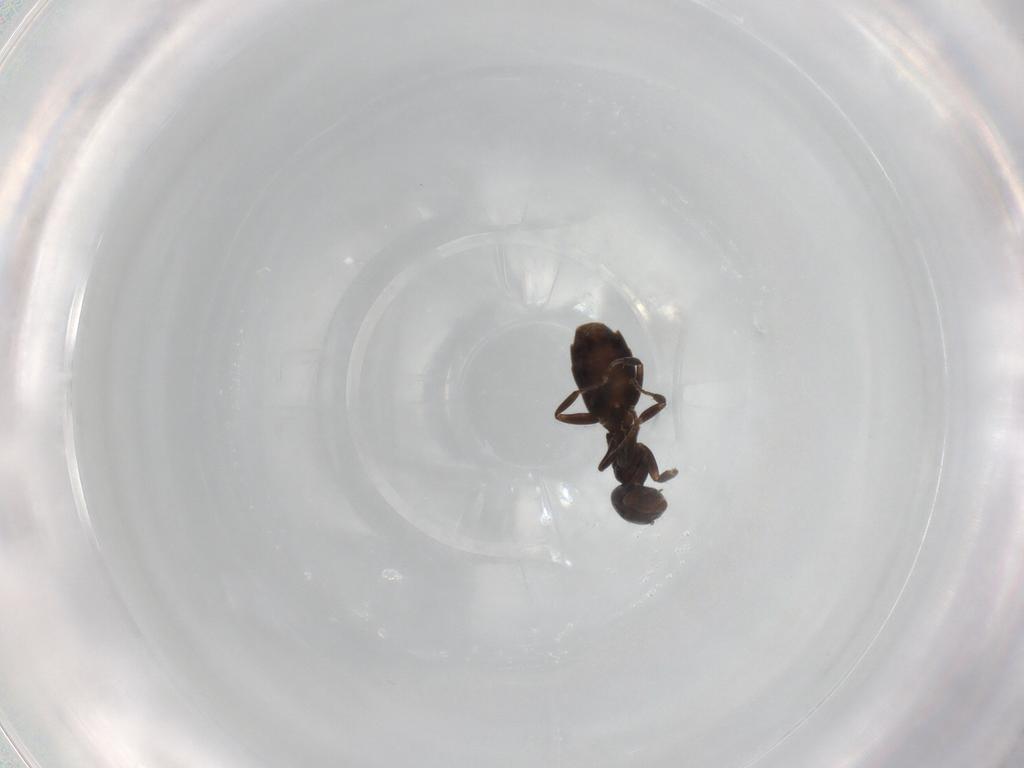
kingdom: Animalia
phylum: Arthropoda
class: Insecta
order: Hymenoptera
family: Formicidae
